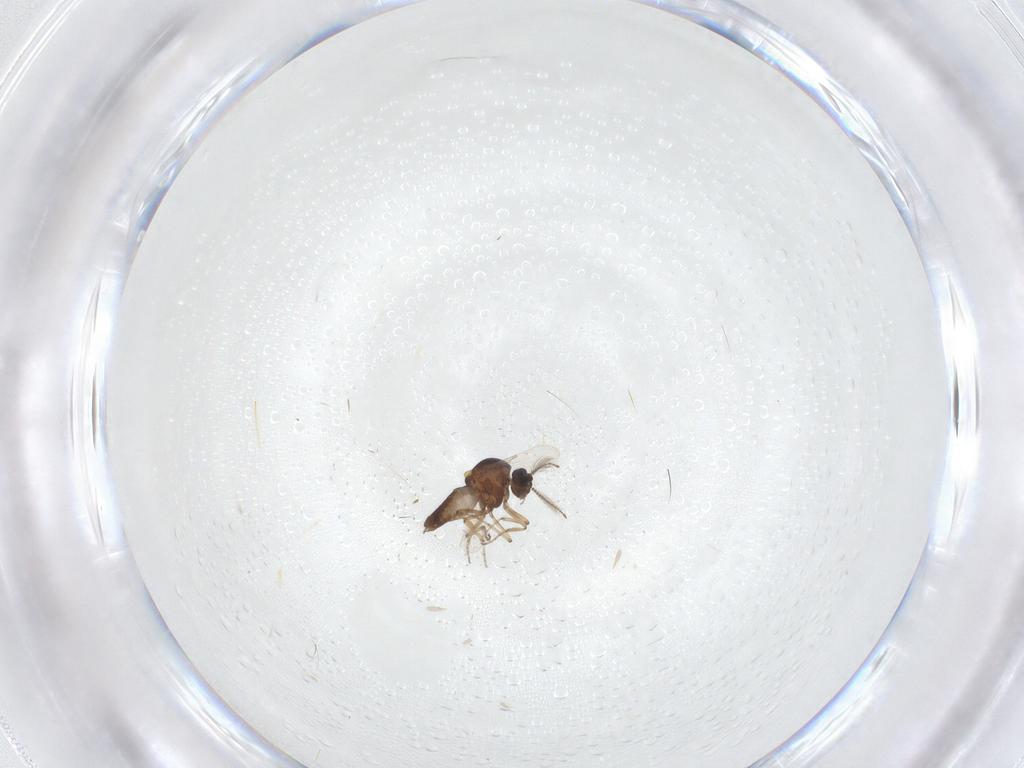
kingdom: Animalia
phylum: Arthropoda
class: Insecta
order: Diptera
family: Ceratopogonidae
